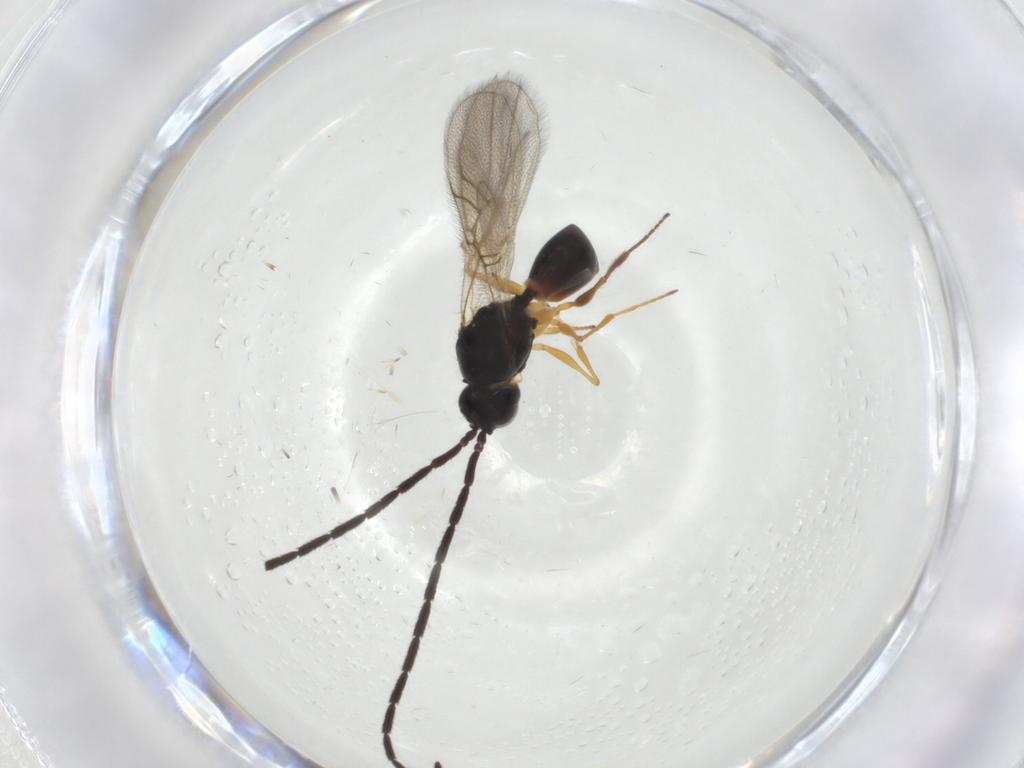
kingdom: Animalia
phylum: Arthropoda
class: Insecta
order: Hymenoptera
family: Figitidae
